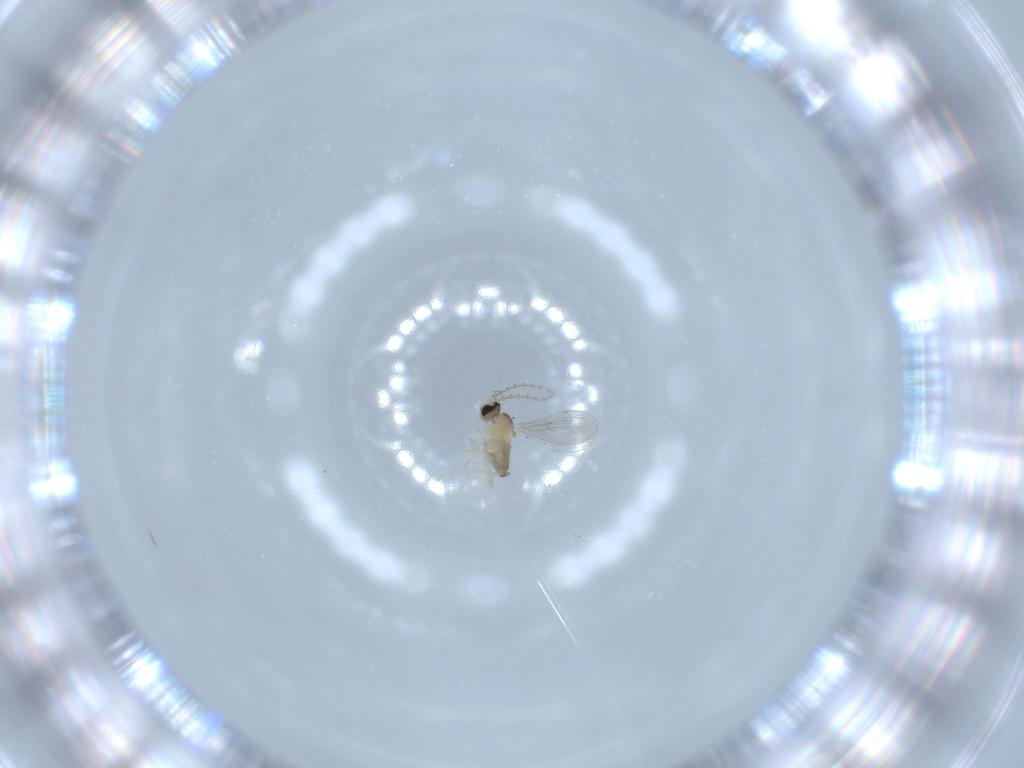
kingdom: Animalia
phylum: Arthropoda
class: Insecta
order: Diptera
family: Cecidomyiidae
